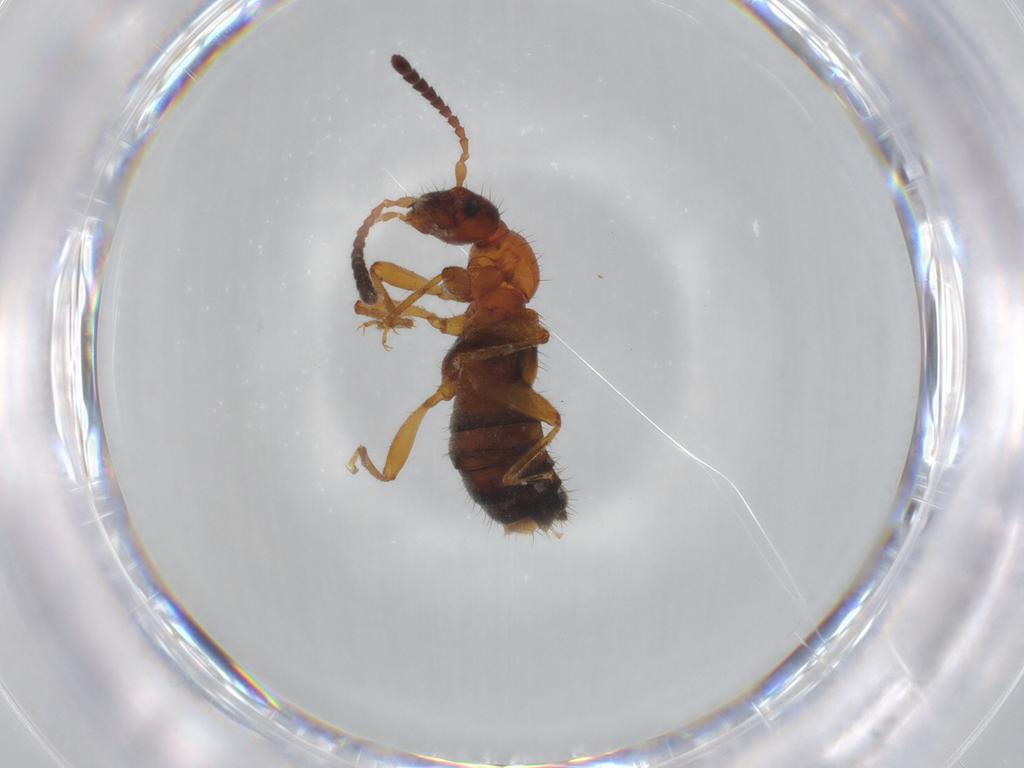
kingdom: Animalia
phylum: Arthropoda
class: Insecta
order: Coleoptera
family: Staphylinidae
